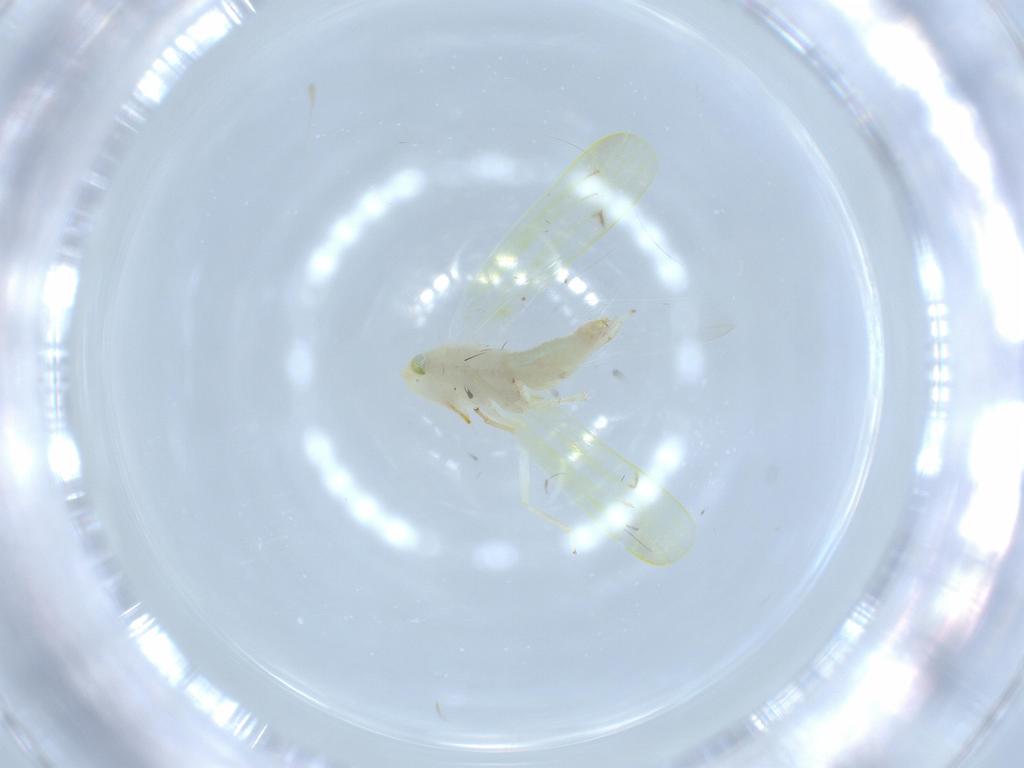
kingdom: Animalia
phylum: Arthropoda
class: Insecta
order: Hemiptera
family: Cicadellidae
